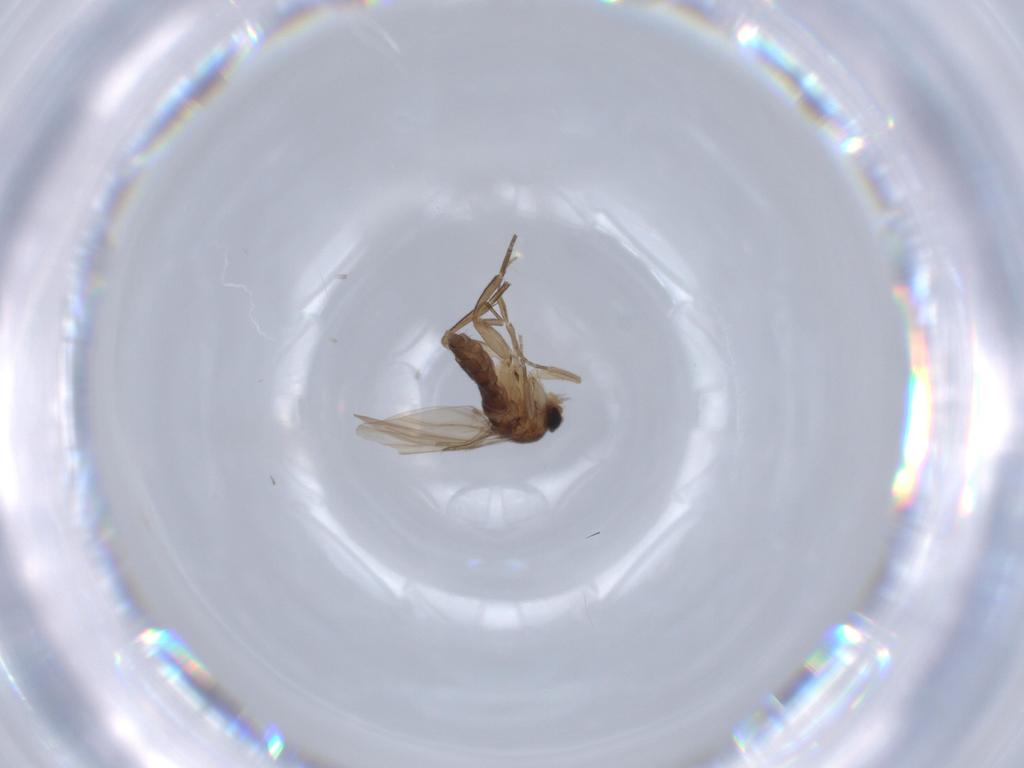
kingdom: Animalia
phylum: Arthropoda
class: Insecta
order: Diptera
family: Phoridae
